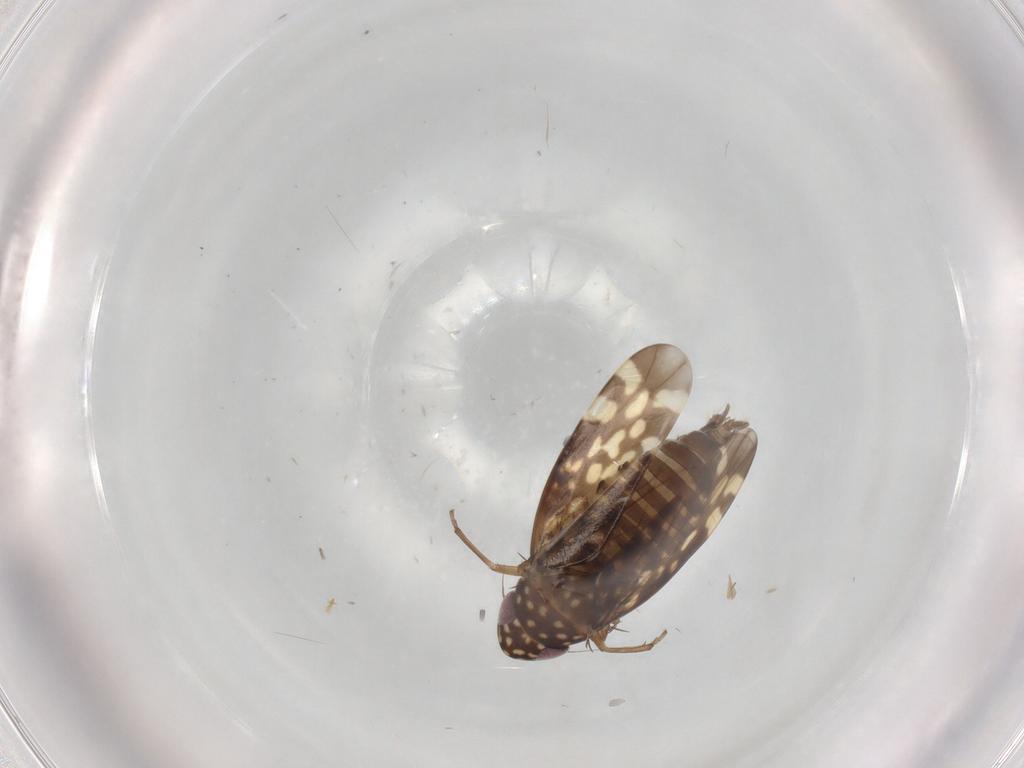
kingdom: Animalia
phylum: Arthropoda
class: Insecta
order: Hemiptera
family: Cicadellidae
